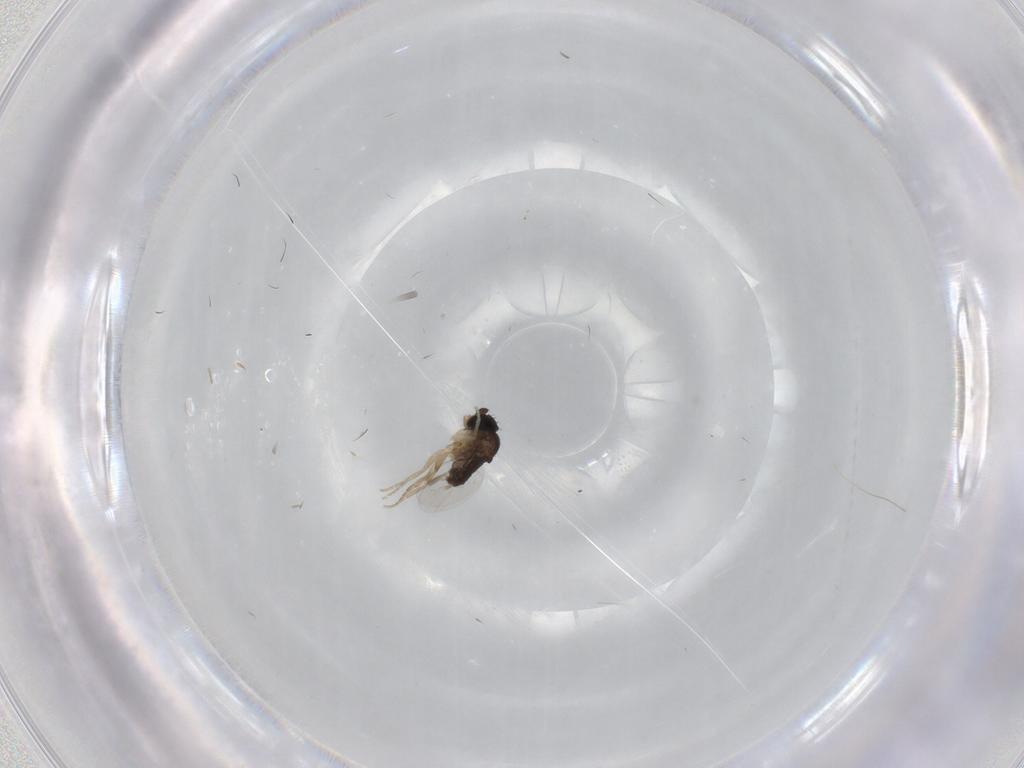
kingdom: Animalia
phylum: Arthropoda
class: Insecta
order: Diptera
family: Phoridae
